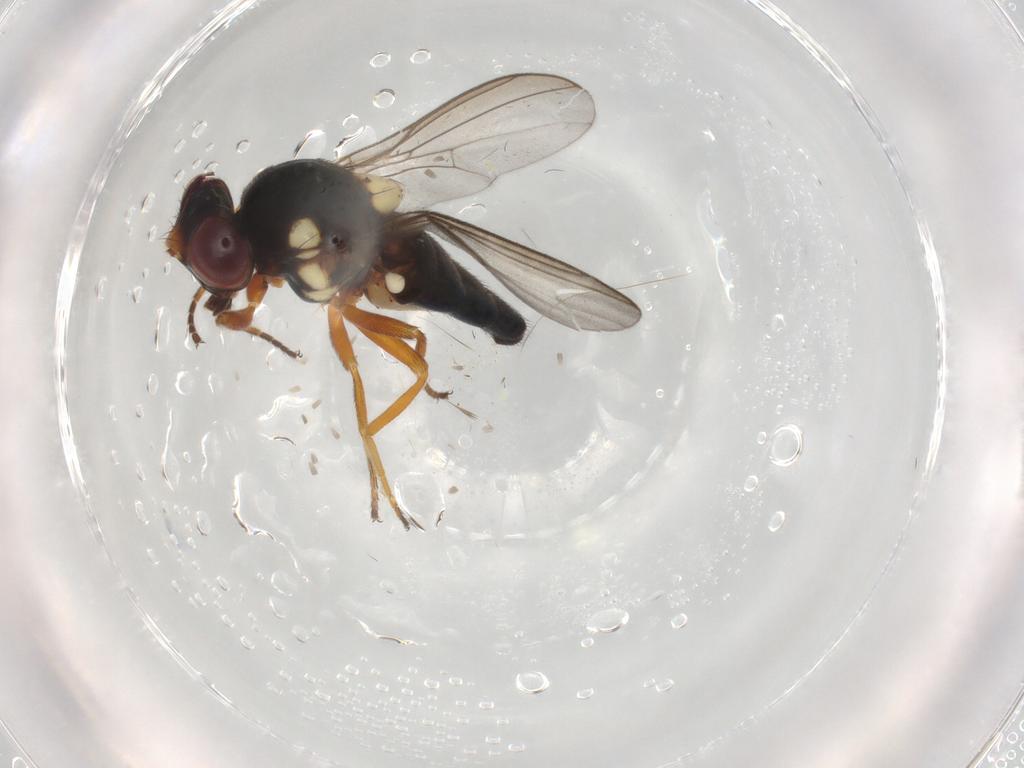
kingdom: Animalia
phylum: Arthropoda
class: Insecta
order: Diptera
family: Chloropidae
